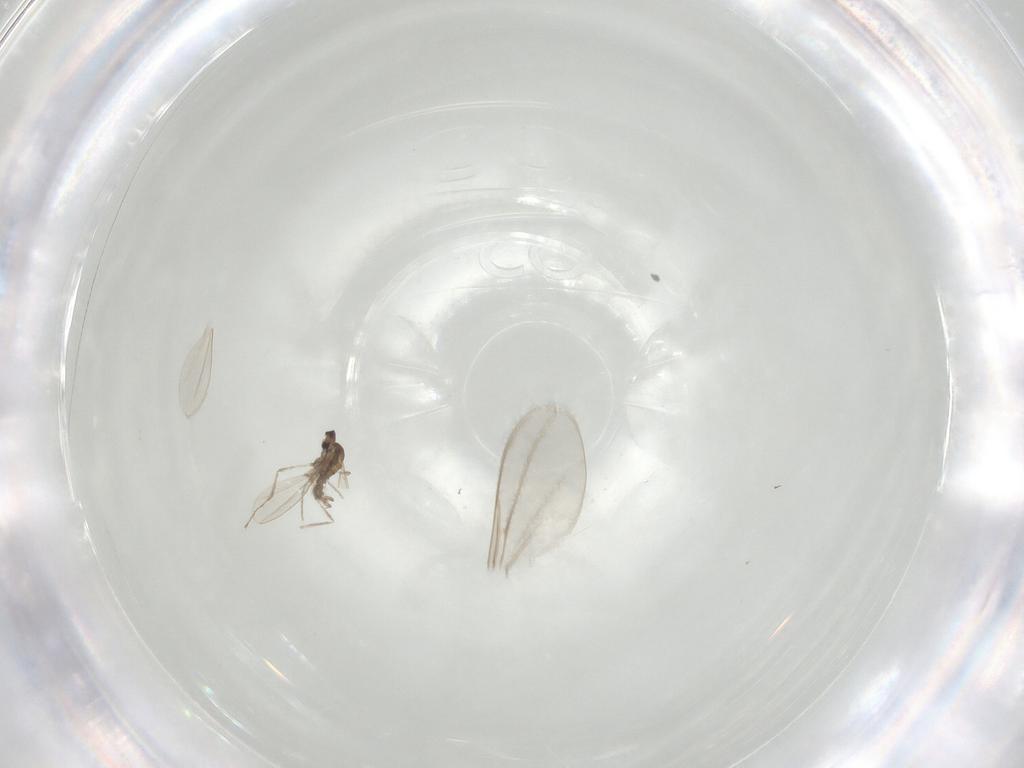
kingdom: Animalia
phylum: Arthropoda
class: Insecta
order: Diptera
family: Cecidomyiidae
